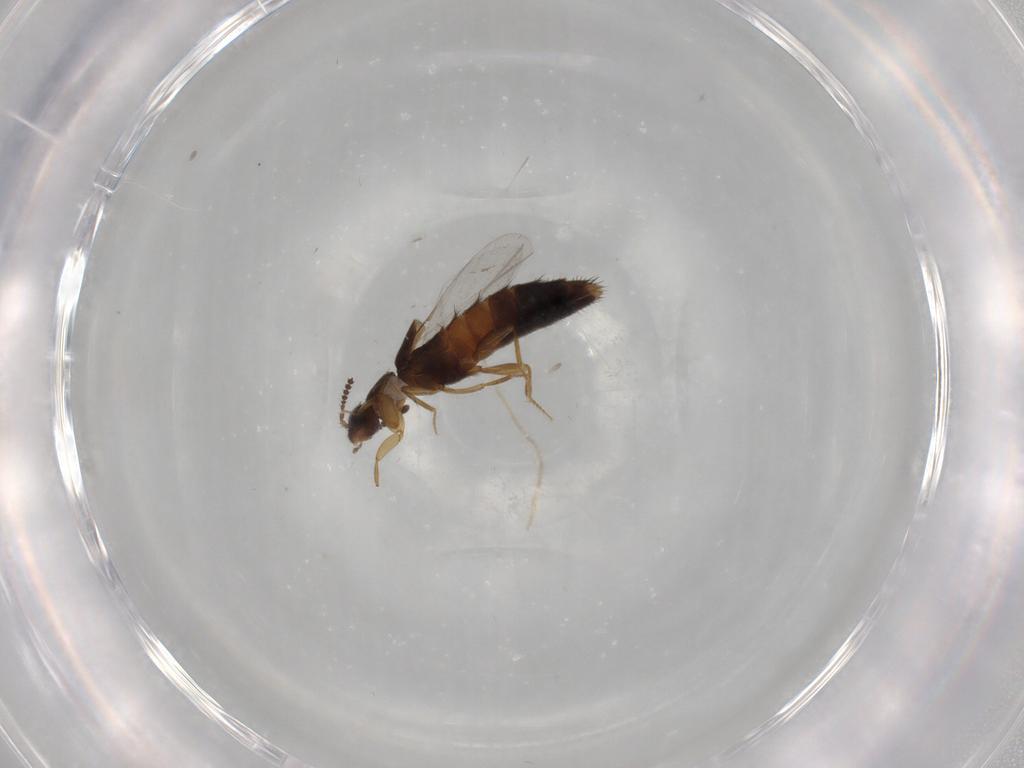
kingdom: Animalia
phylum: Arthropoda
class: Insecta
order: Coleoptera
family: Staphylinidae
